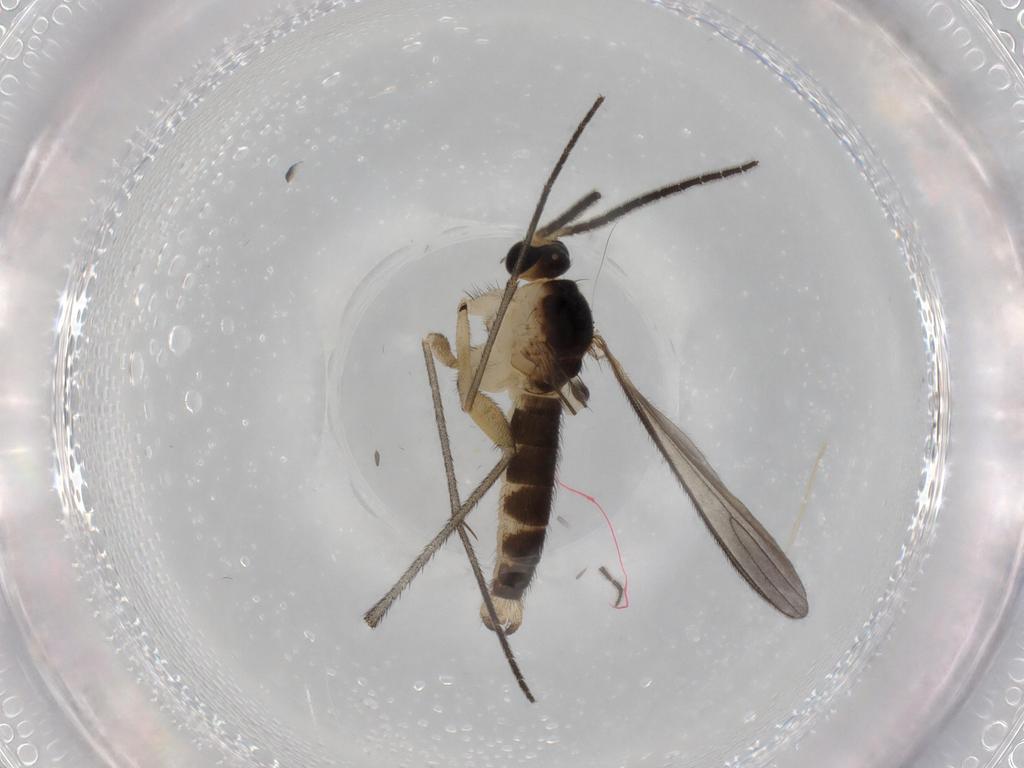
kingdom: Animalia
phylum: Arthropoda
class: Insecta
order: Diptera
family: Sciaridae
